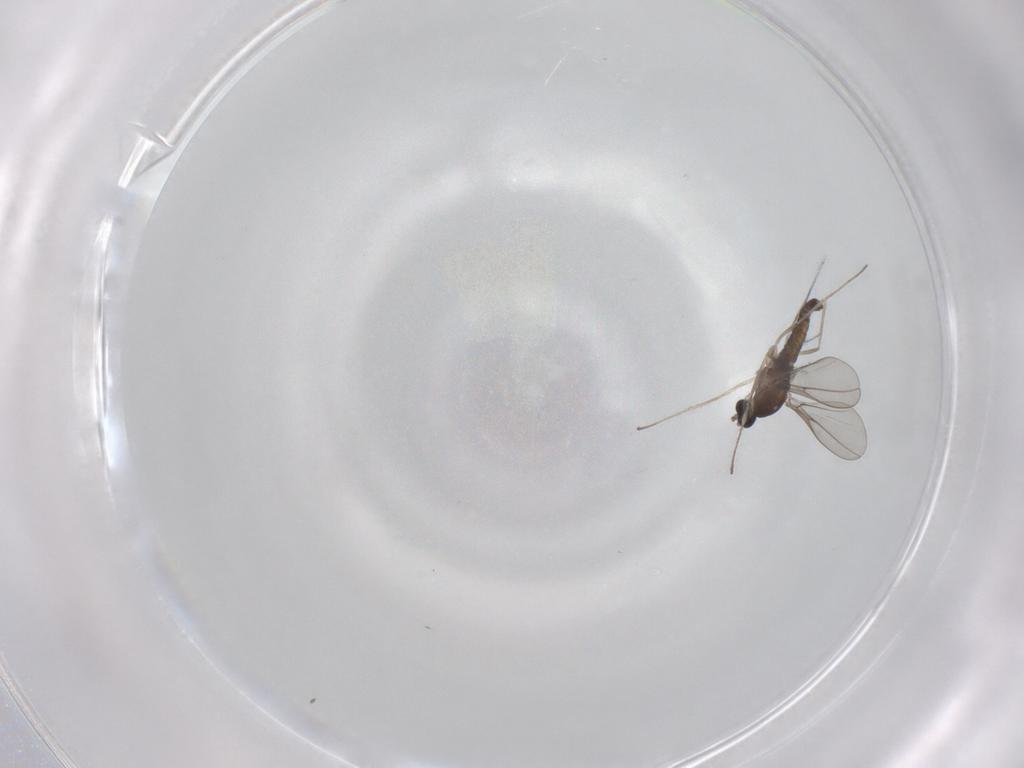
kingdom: Animalia
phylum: Arthropoda
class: Insecta
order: Diptera
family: Cecidomyiidae
